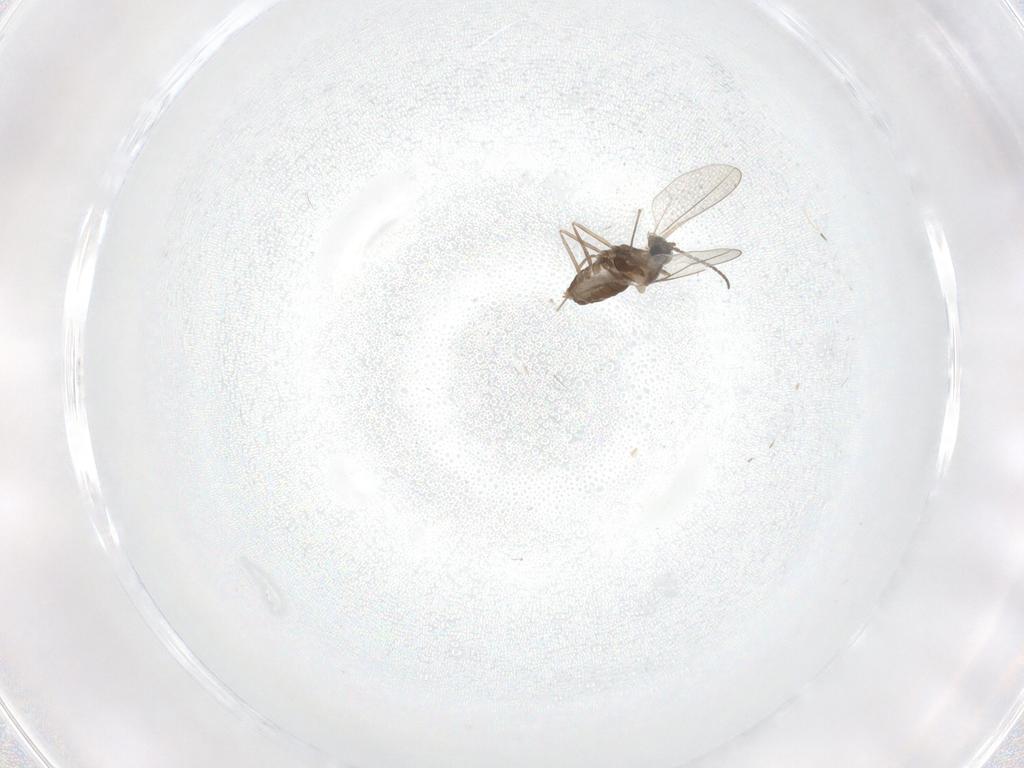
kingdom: Animalia
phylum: Arthropoda
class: Insecta
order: Diptera
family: Cecidomyiidae
